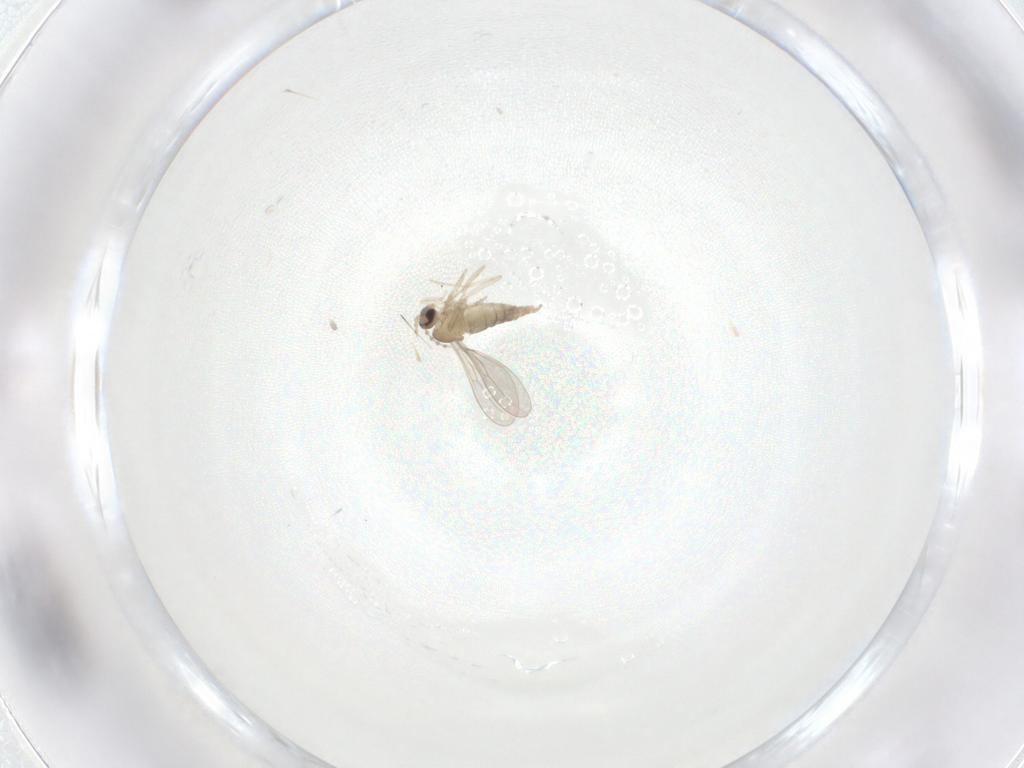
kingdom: Animalia
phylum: Arthropoda
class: Insecta
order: Diptera
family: Cecidomyiidae
